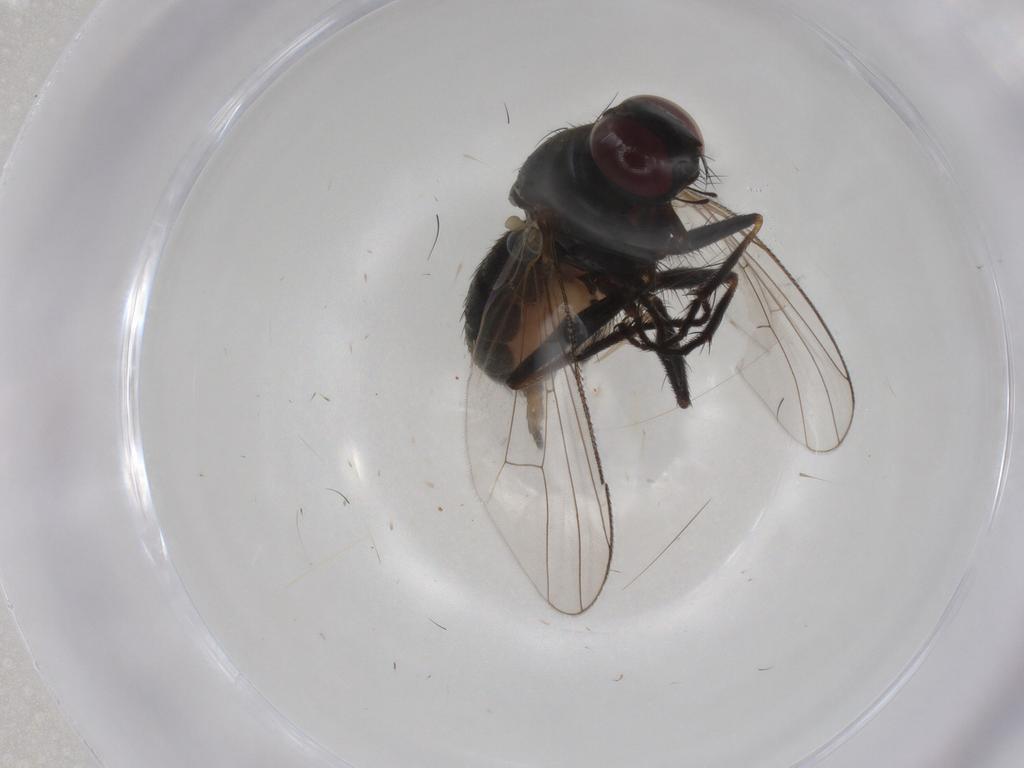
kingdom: Animalia
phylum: Arthropoda
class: Insecta
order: Diptera
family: Muscidae
